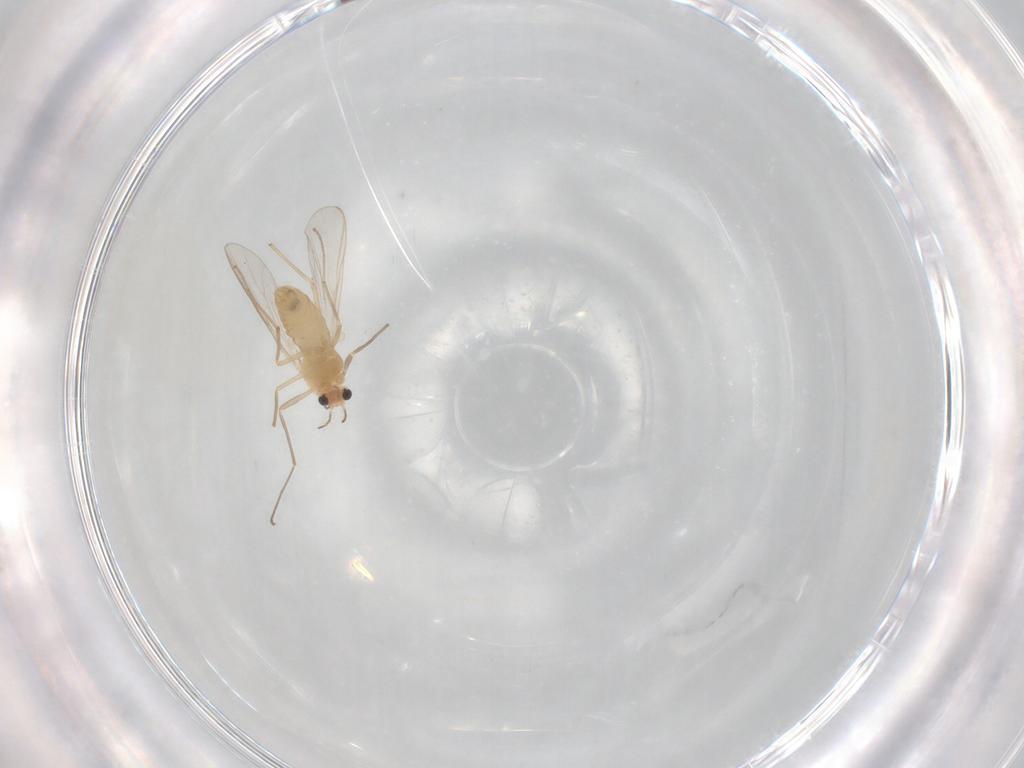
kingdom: Animalia
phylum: Arthropoda
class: Insecta
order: Diptera
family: Chironomidae
